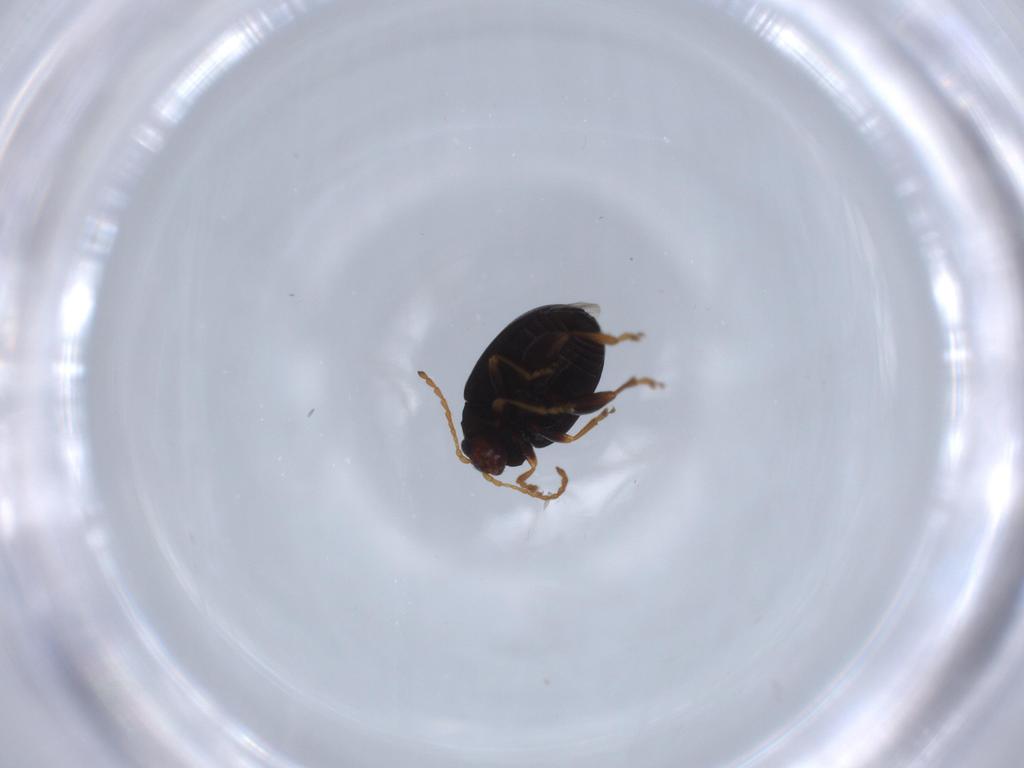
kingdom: Animalia
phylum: Arthropoda
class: Insecta
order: Coleoptera
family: Chrysomelidae
